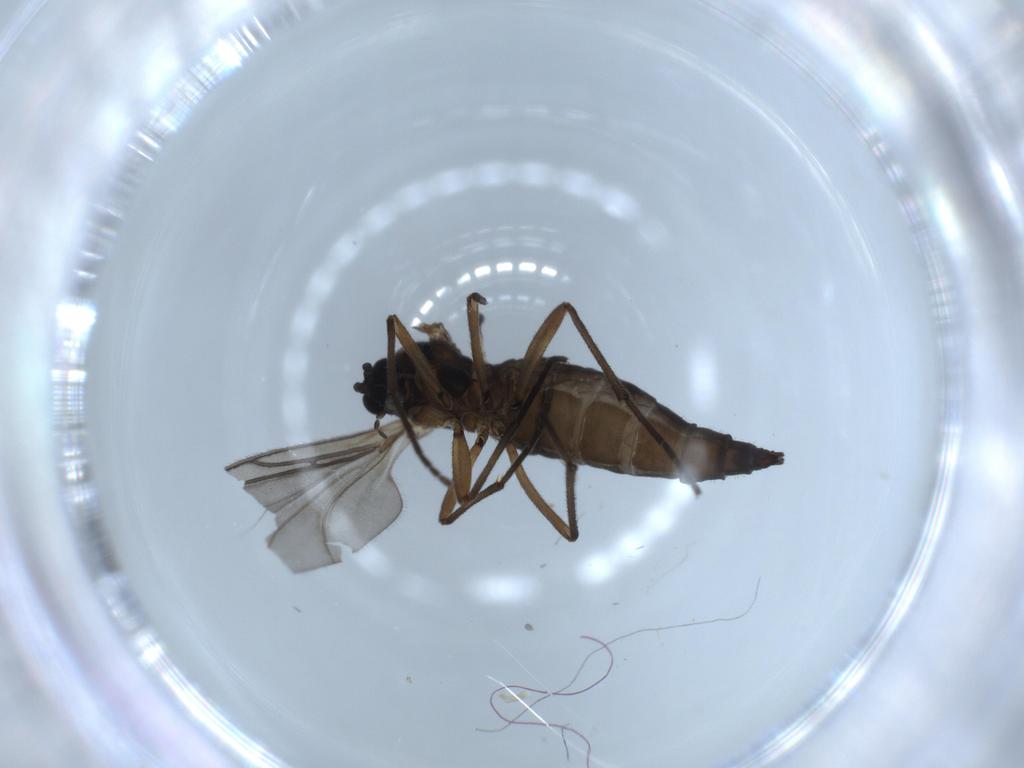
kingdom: Animalia
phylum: Arthropoda
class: Insecta
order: Diptera
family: Sciaridae
